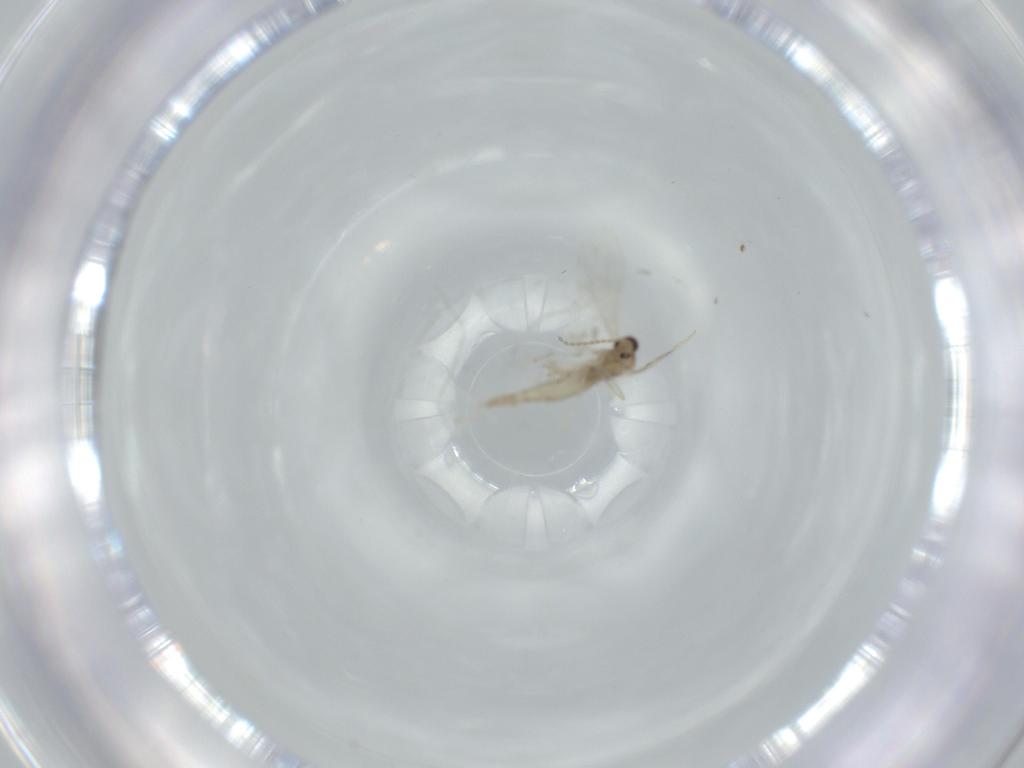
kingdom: Animalia
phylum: Arthropoda
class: Insecta
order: Diptera
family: Cecidomyiidae
